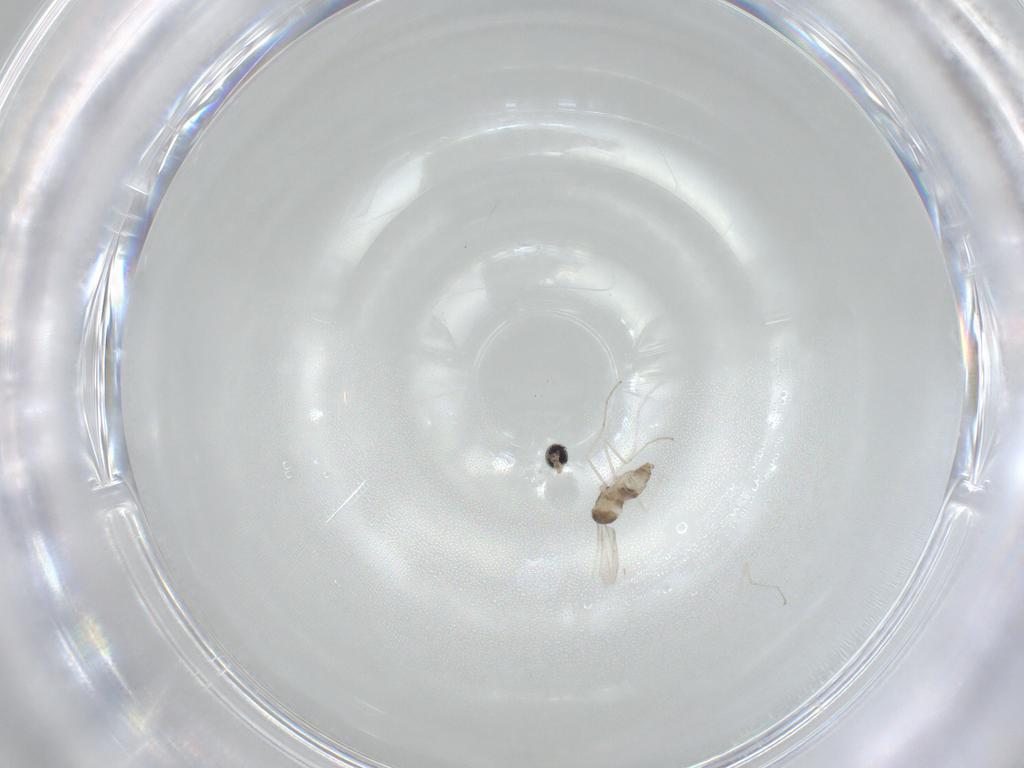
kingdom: Animalia
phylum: Arthropoda
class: Insecta
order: Diptera
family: Cecidomyiidae
